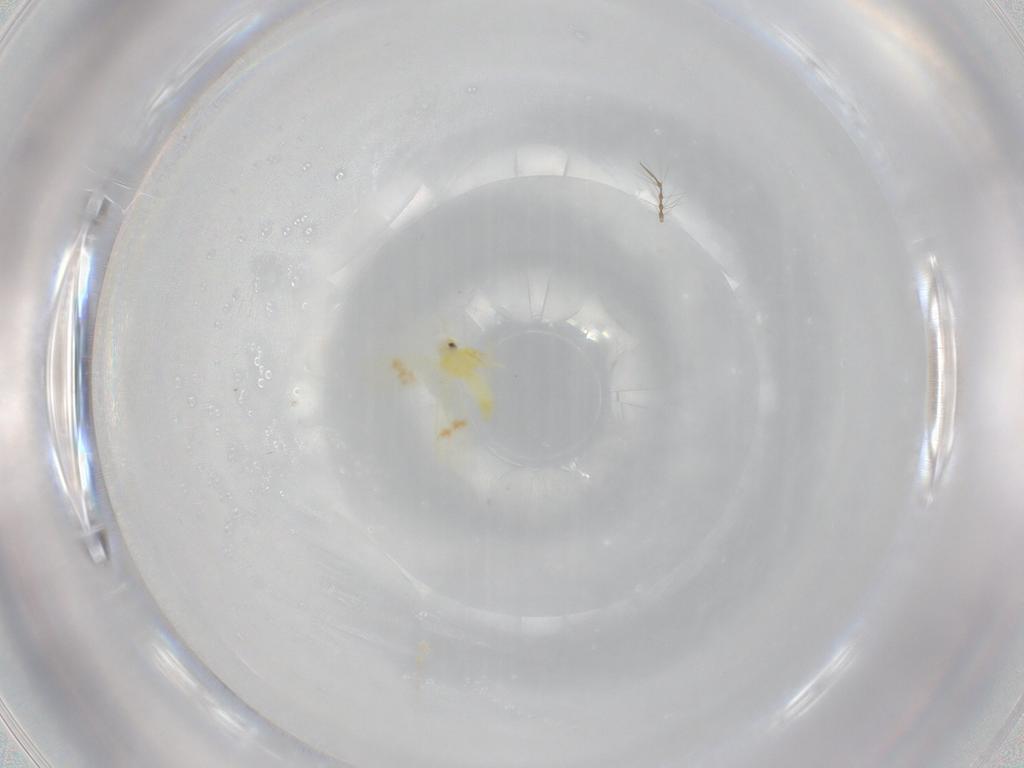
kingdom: Animalia
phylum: Arthropoda
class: Insecta
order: Hemiptera
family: Aleyrodidae
